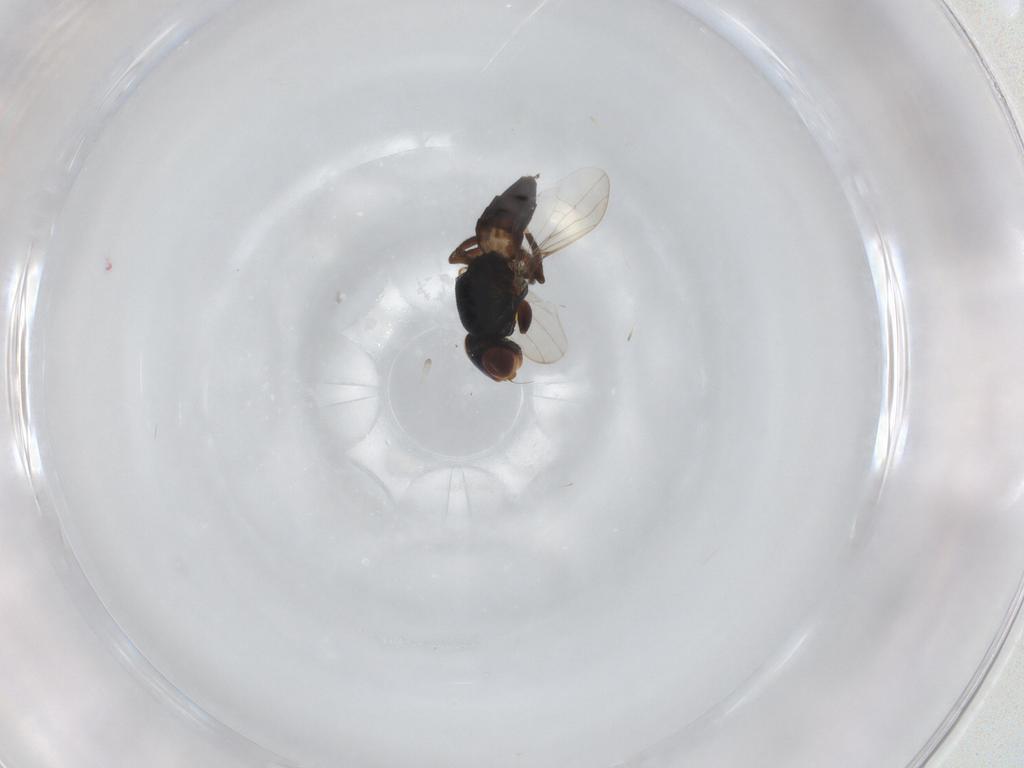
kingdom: Animalia
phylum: Arthropoda
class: Insecta
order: Diptera
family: Chloropidae
